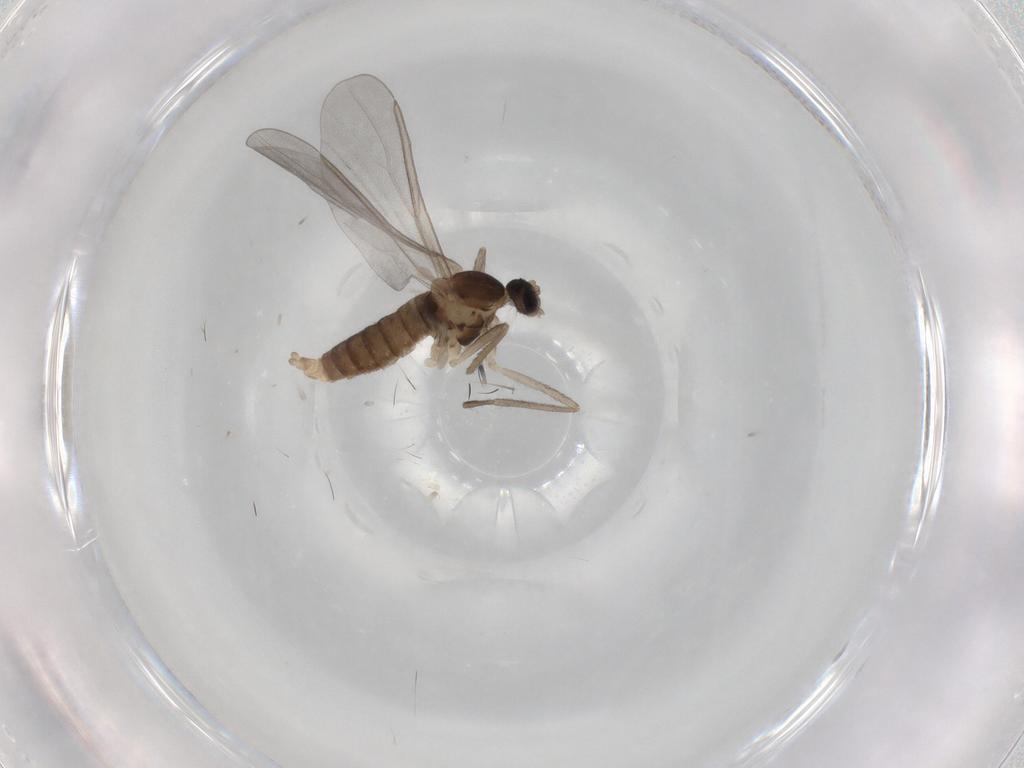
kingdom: Animalia
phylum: Arthropoda
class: Insecta
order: Diptera
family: Cecidomyiidae
